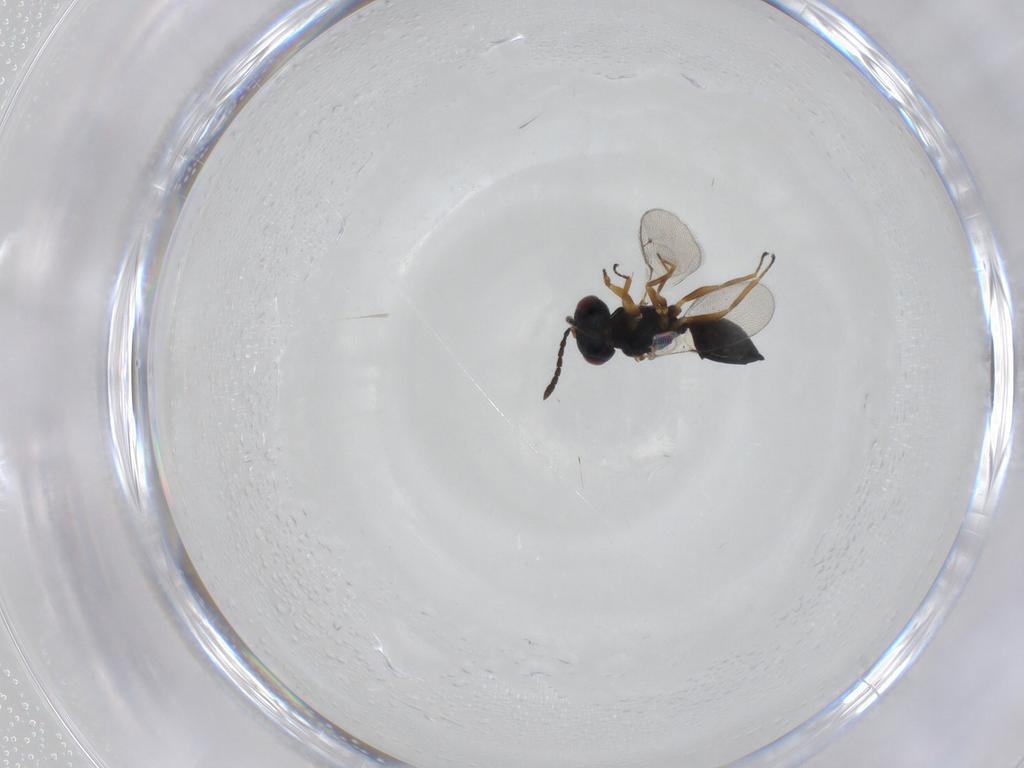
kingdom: Animalia
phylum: Arthropoda
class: Insecta
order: Hymenoptera
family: Pteromalidae
